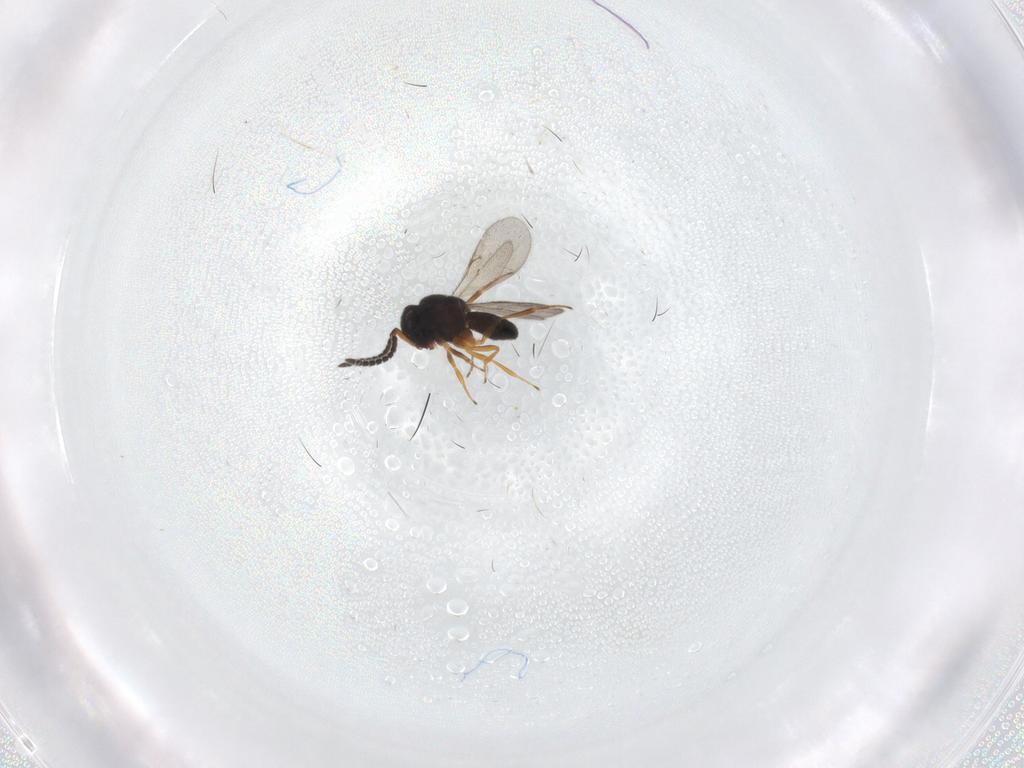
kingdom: Animalia
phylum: Arthropoda
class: Insecta
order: Hymenoptera
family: Scelionidae
